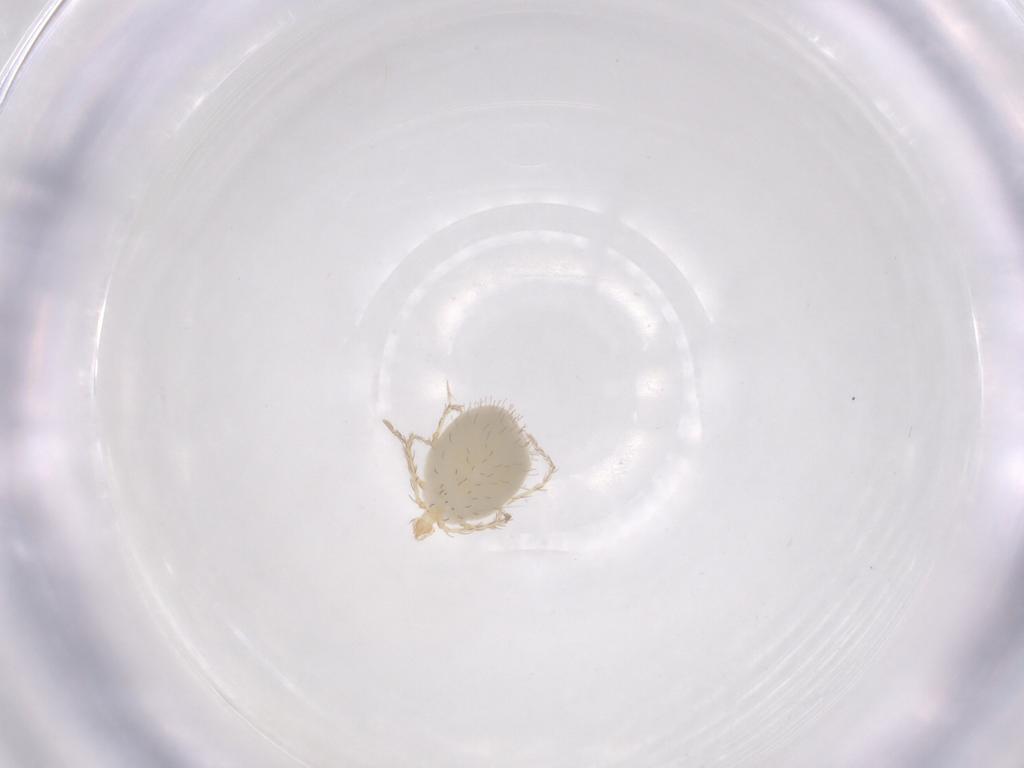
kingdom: Animalia
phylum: Arthropoda
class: Arachnida
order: Trombidiformes
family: Erythraeidae
